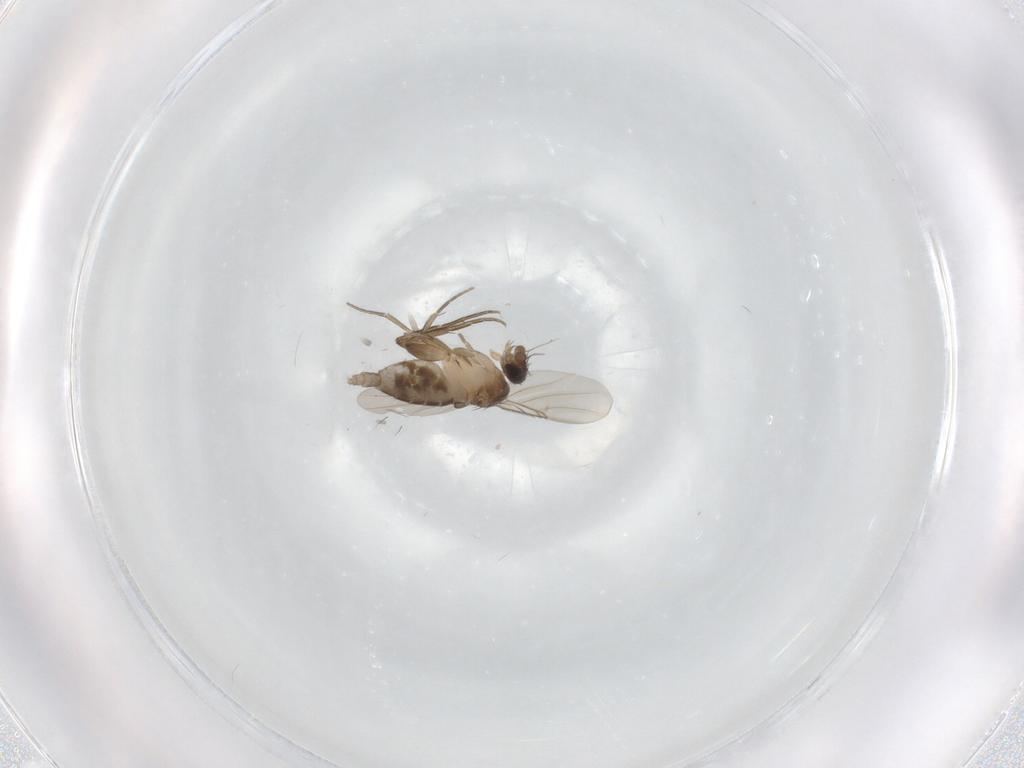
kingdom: Animalia
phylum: Arthropoda
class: Insecta
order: Diptera
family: Phoridae
